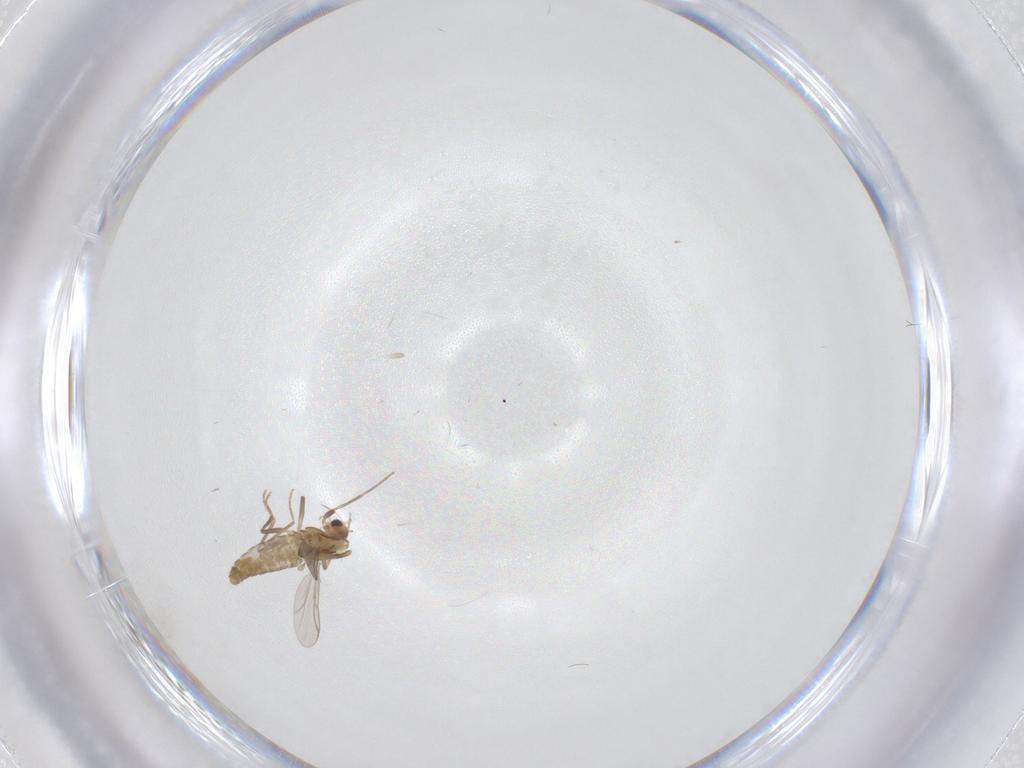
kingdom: Animalia
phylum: Arthropoda
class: Insecta
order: Diptera
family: Chironomidae
